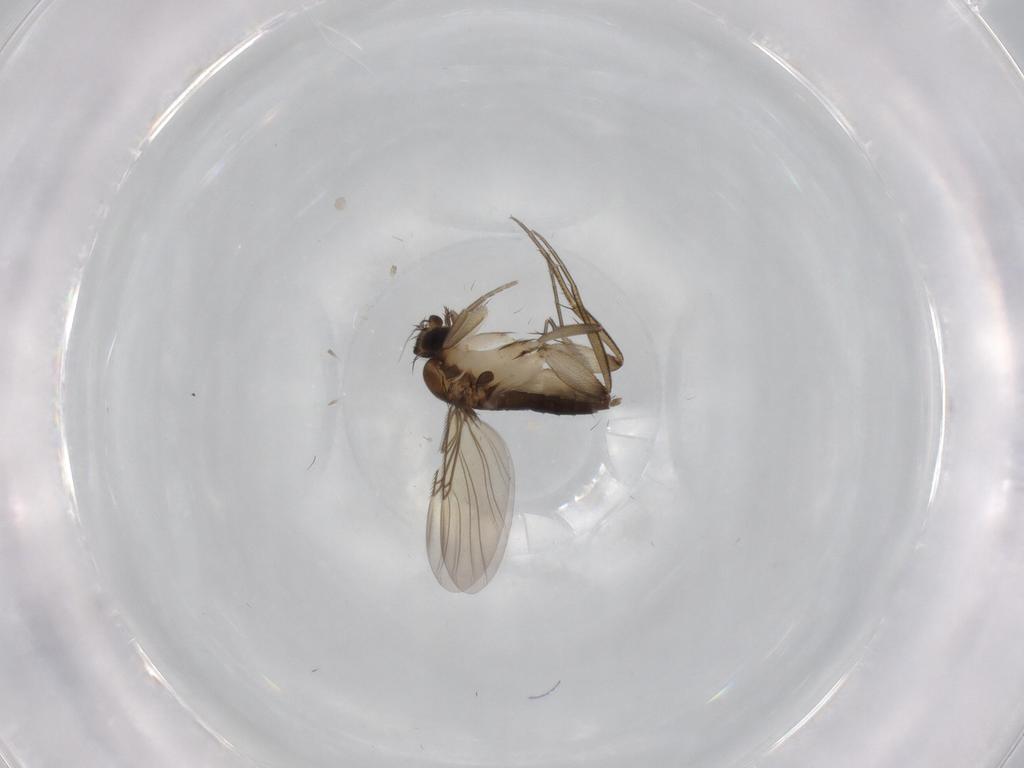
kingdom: Animalia
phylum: Arthropoda
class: Insecta
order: Diptera
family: Phoridae
